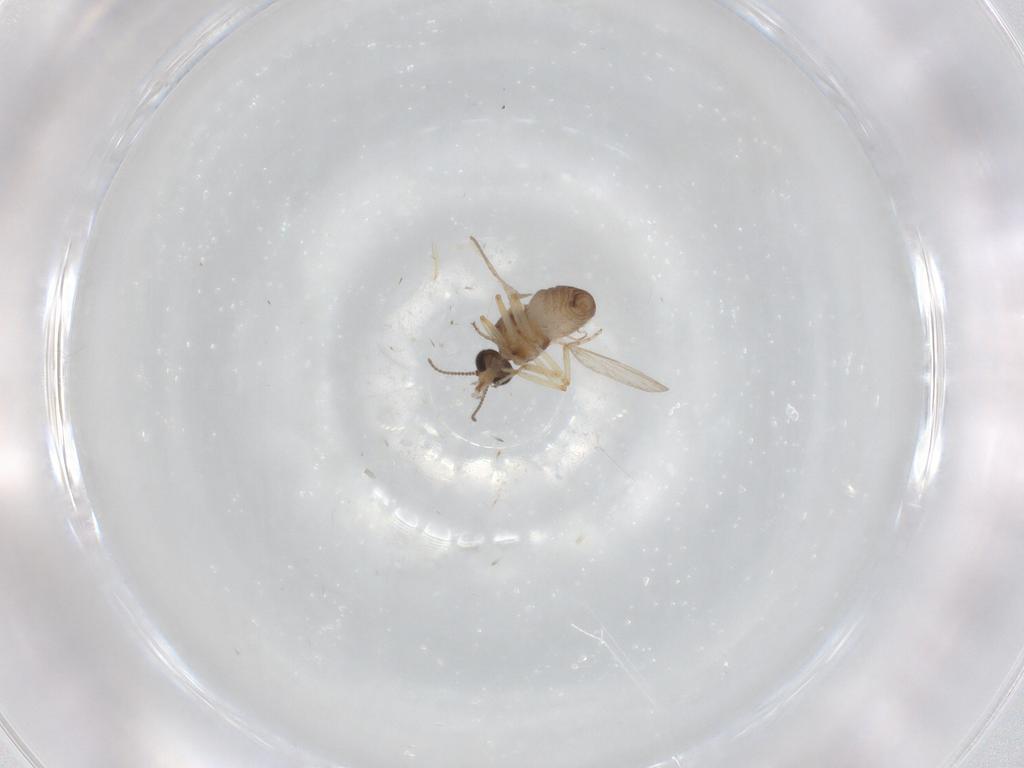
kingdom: Animalia
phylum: Arthropoda
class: Insecta
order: Diptera
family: Ceratopogonidae
